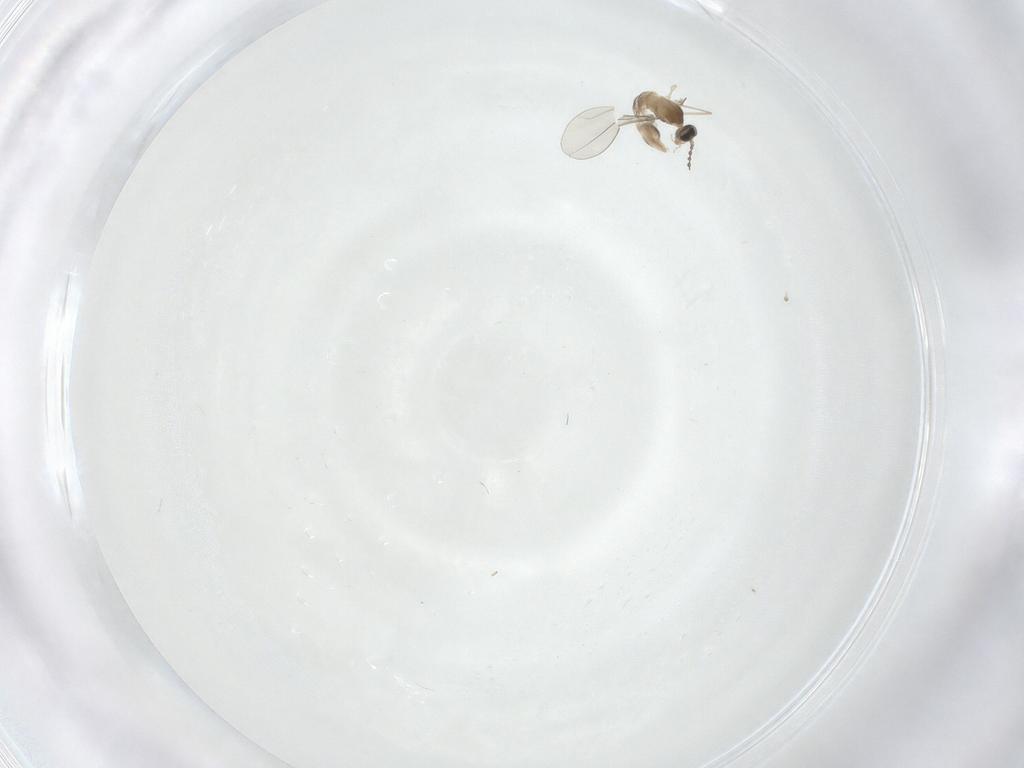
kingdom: Animalia
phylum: Arthropoda
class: Insecta
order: Diptera
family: Cecidomyiidae
